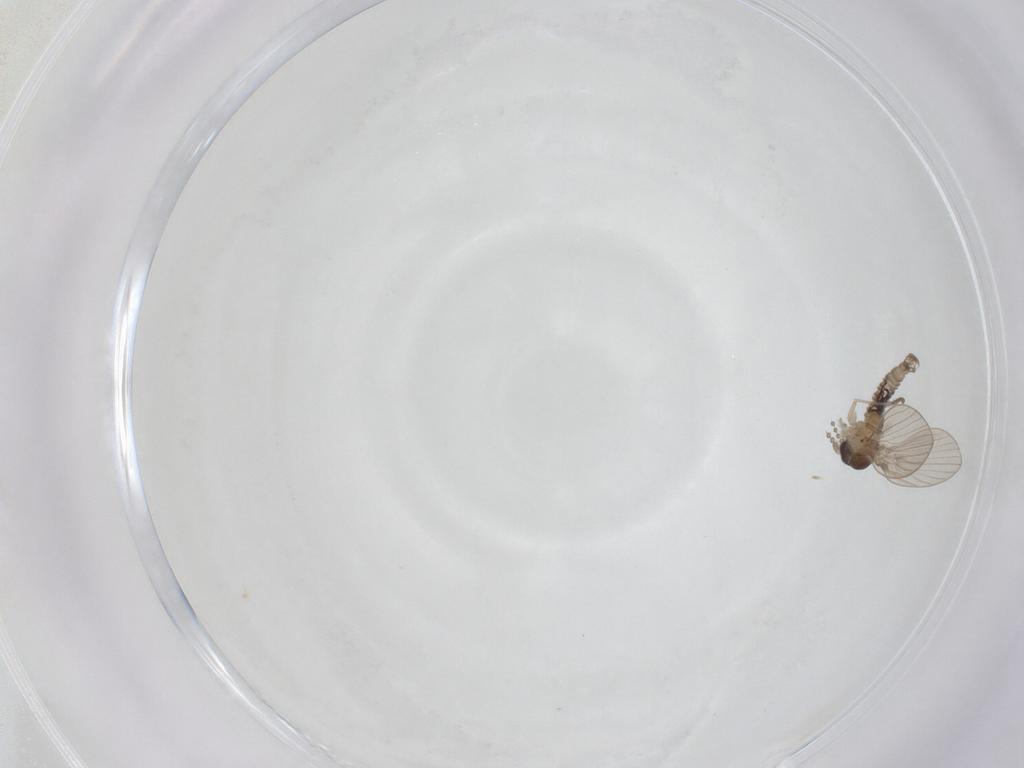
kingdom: Animalia
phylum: Arthropoda
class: Insecta
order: Diptera
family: Psychodidae
